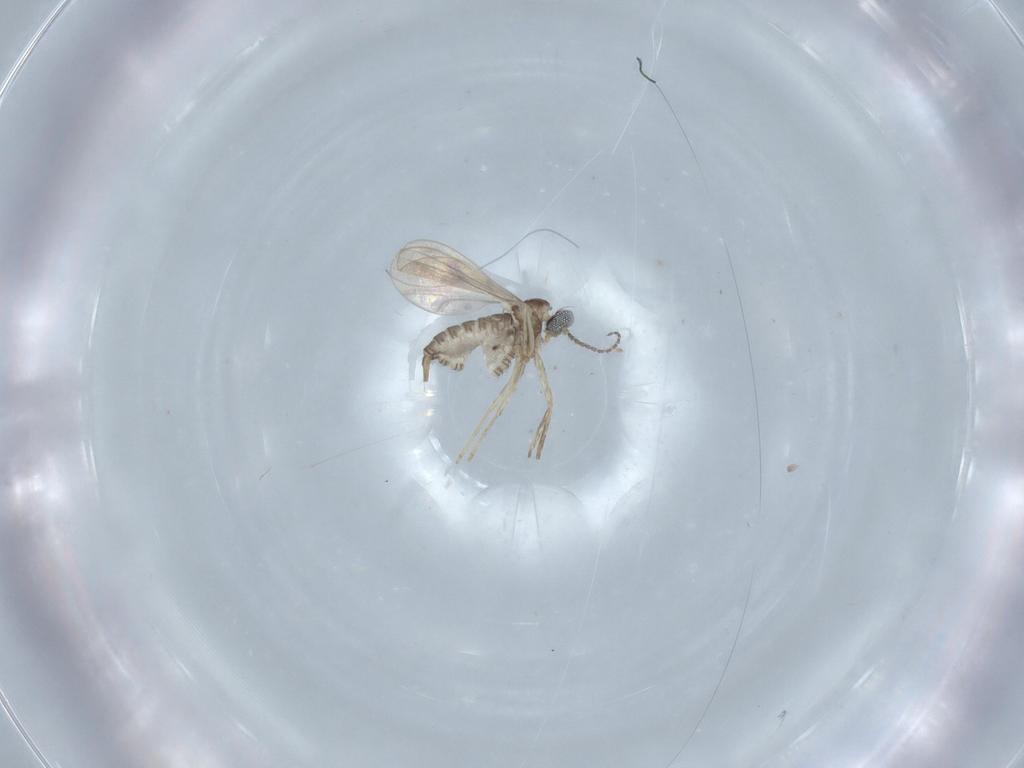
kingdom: Animalia
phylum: Arthropoda
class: Insecta
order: Diptera
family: Cecidomyiidae
